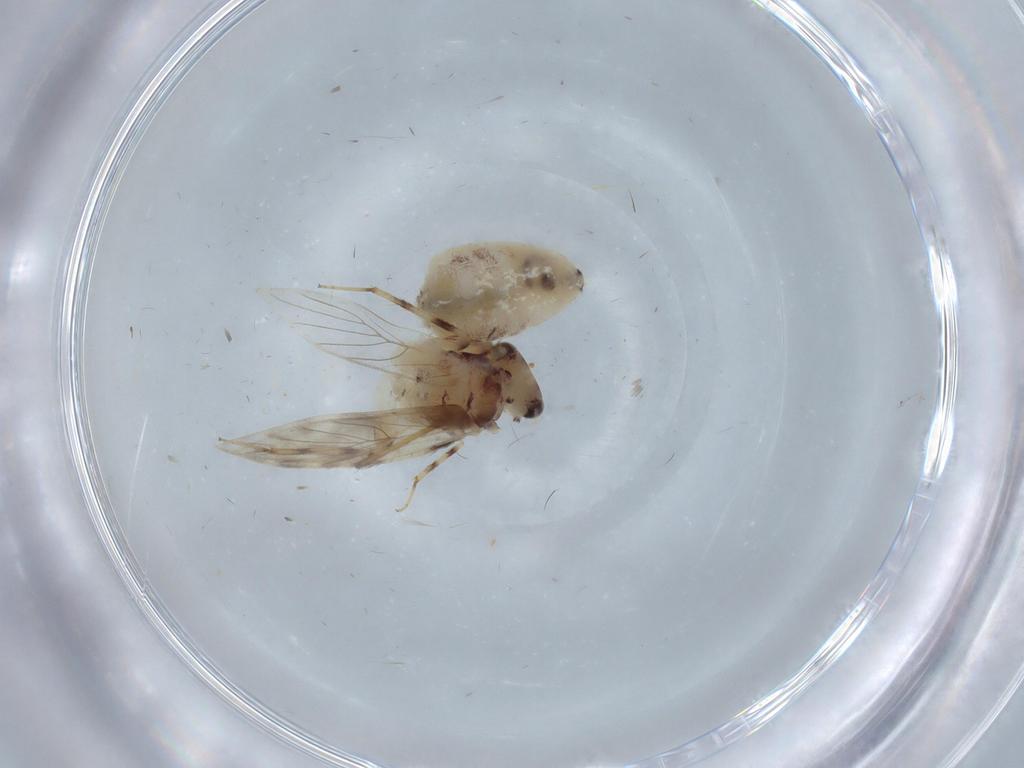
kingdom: Animalia
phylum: Arthropoda
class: Insecta
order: Psocodea
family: Lepidopsocidae
